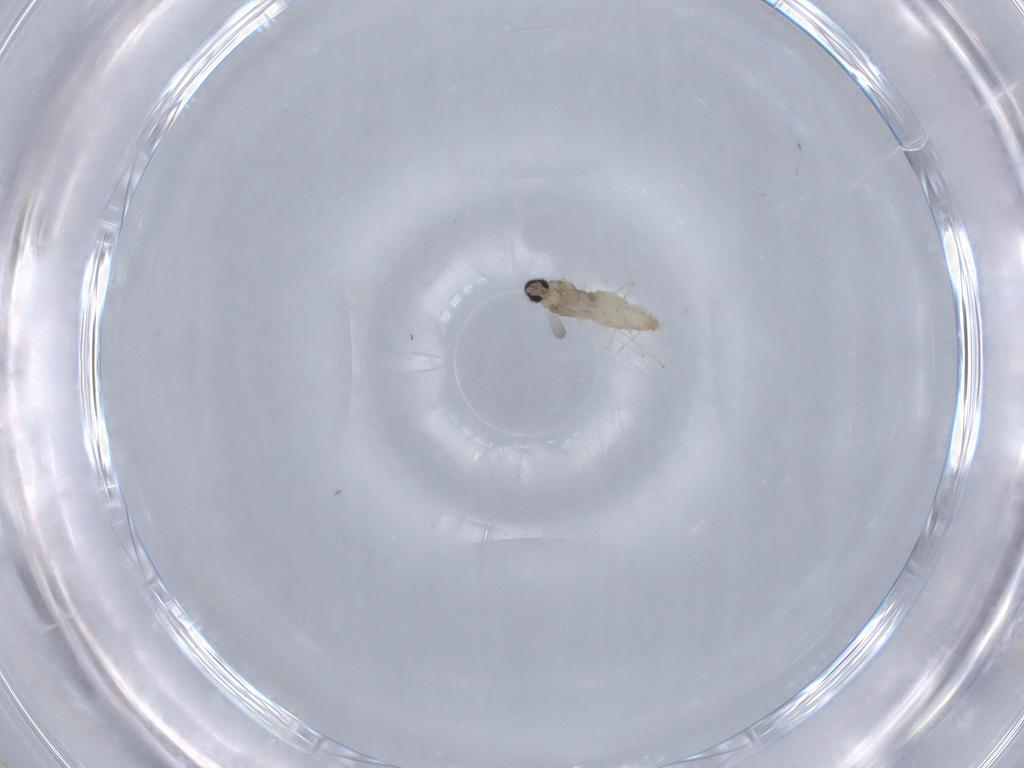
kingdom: Animalia
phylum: Arthropoda
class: Insecta
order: Diptera
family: Cecidomyiidae
